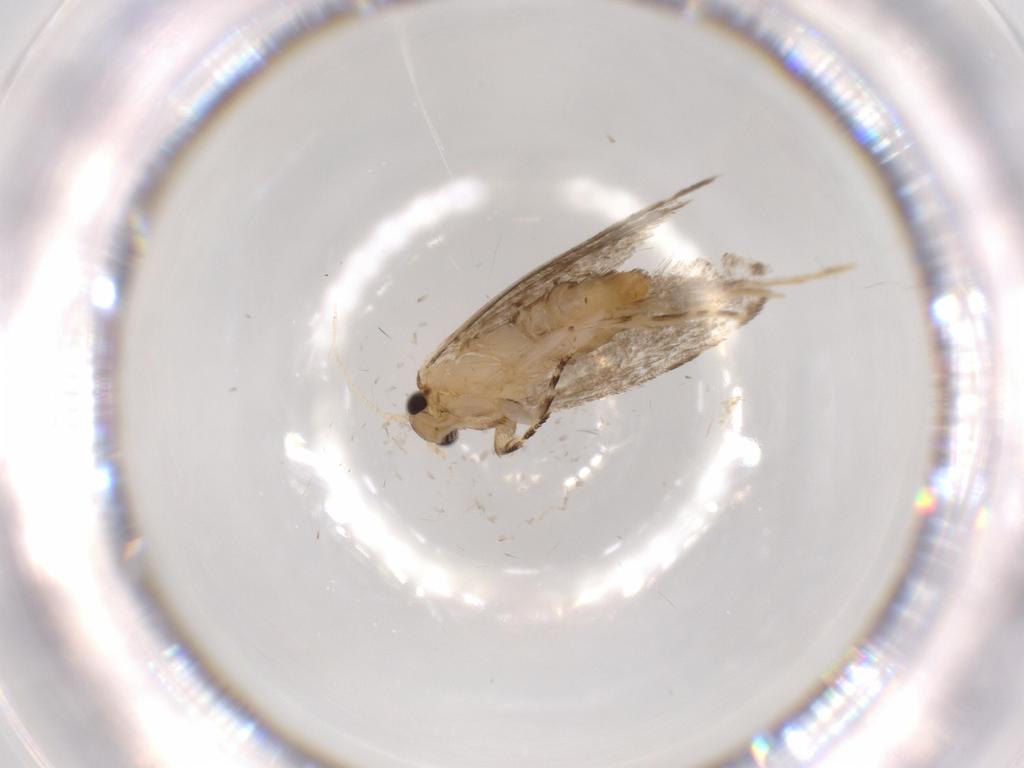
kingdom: Animalia
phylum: Arthropoda
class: Insecta
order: Lepidoptera
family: Tineidae
